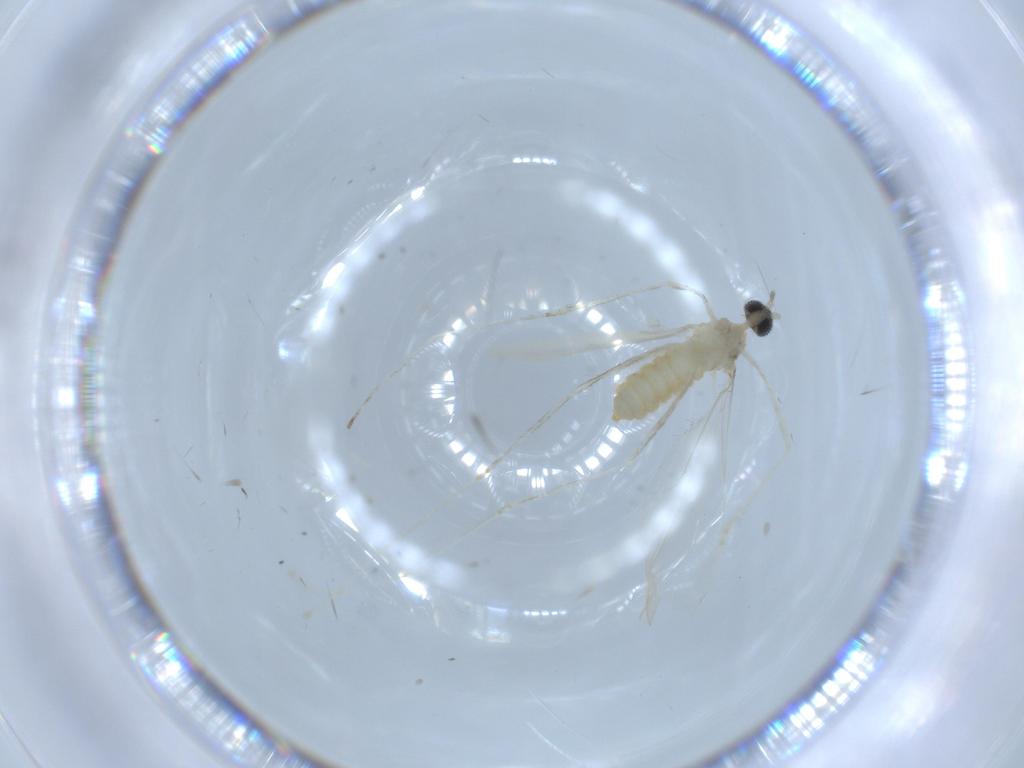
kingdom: Animalia
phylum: Arthropoda
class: Insecta
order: Diptera
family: Cecidomyiidae
